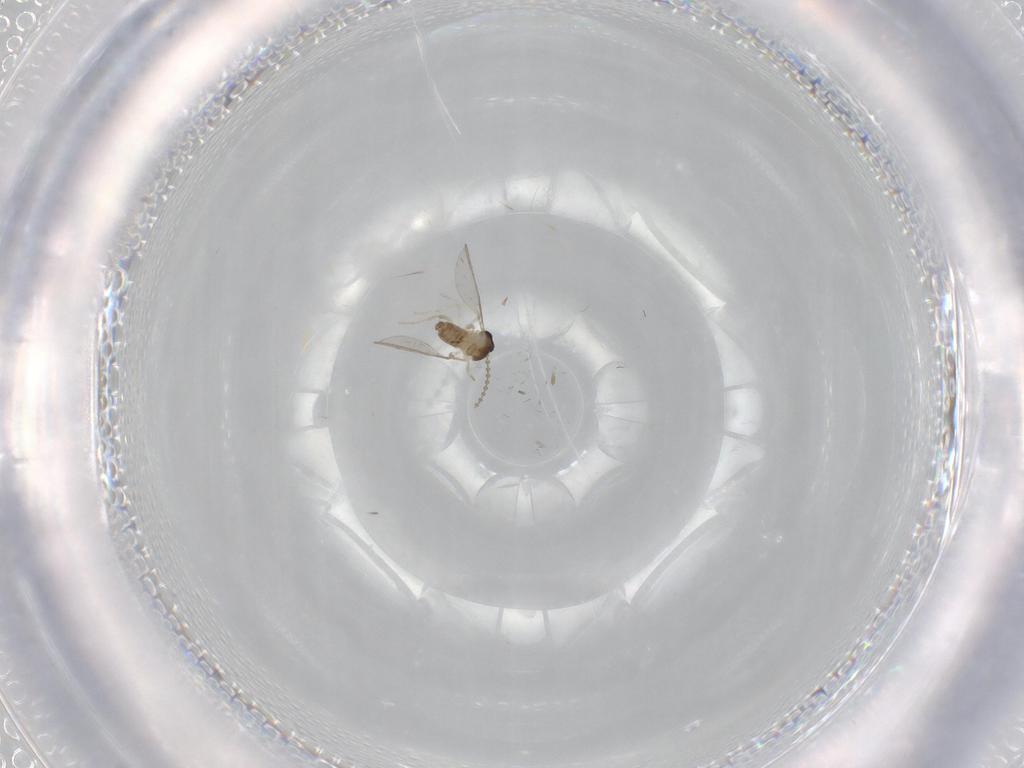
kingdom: Animalia
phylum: Arthropoda
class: Insecta
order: Diptera
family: Cecidomyiidae
